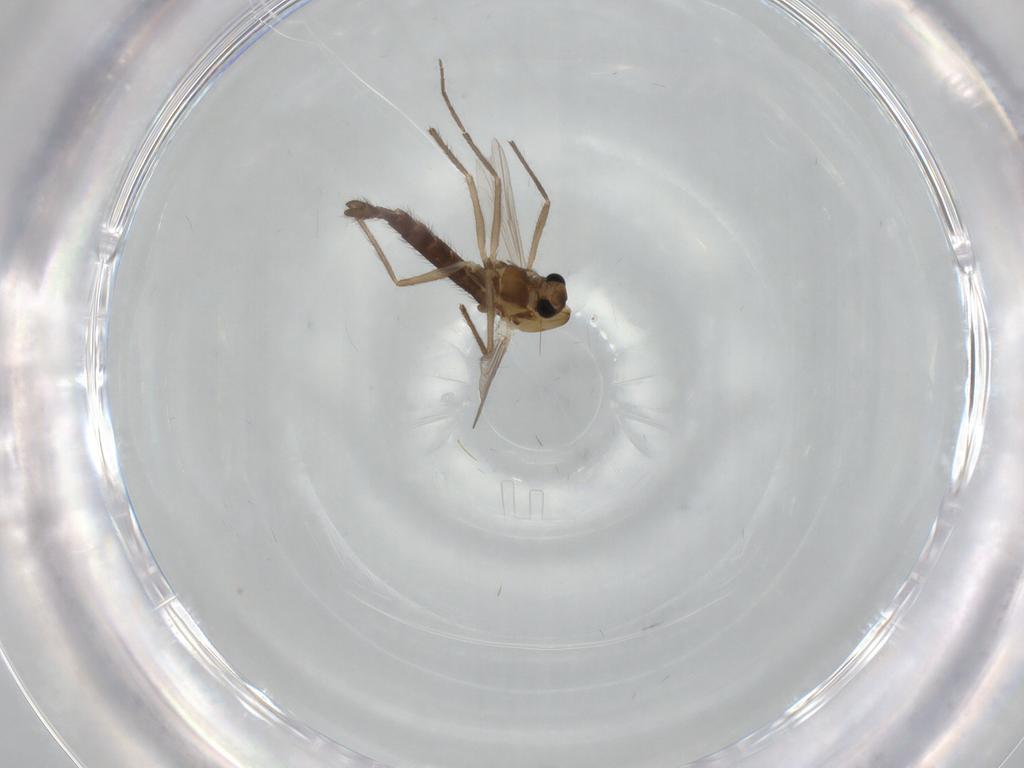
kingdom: Animalia
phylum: Arthropoda
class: Insecta
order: Diptera
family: Chironomidae
